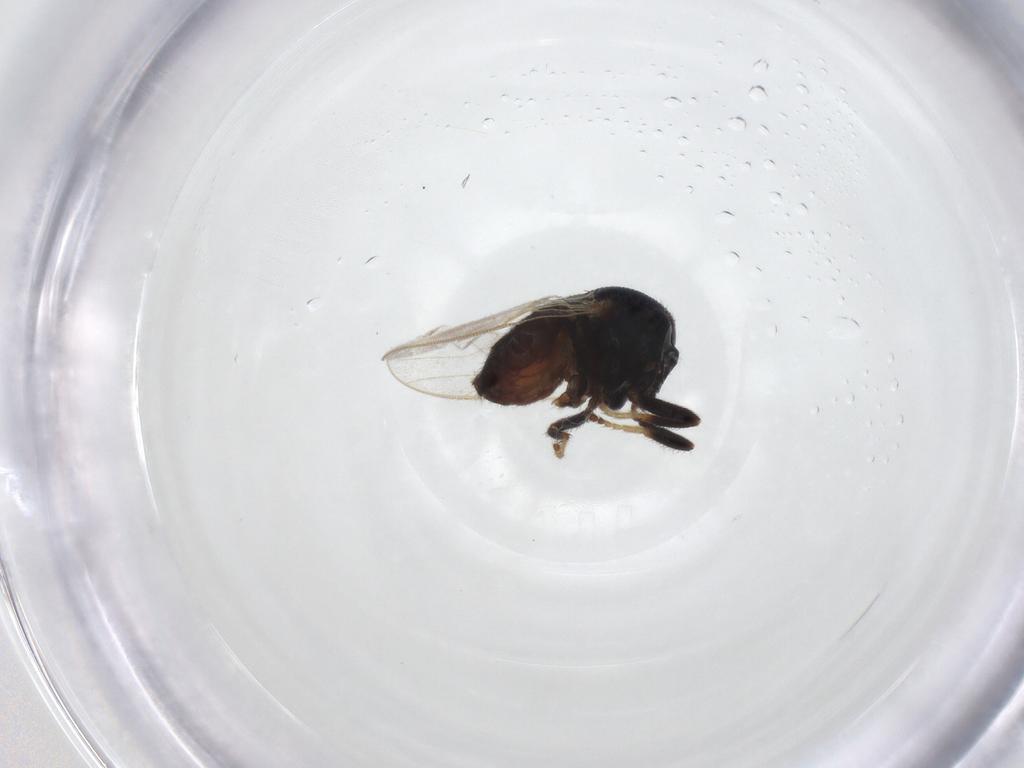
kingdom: Animalia
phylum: Arthropoda
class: Insecta
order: Diptera
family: Chloropidae
